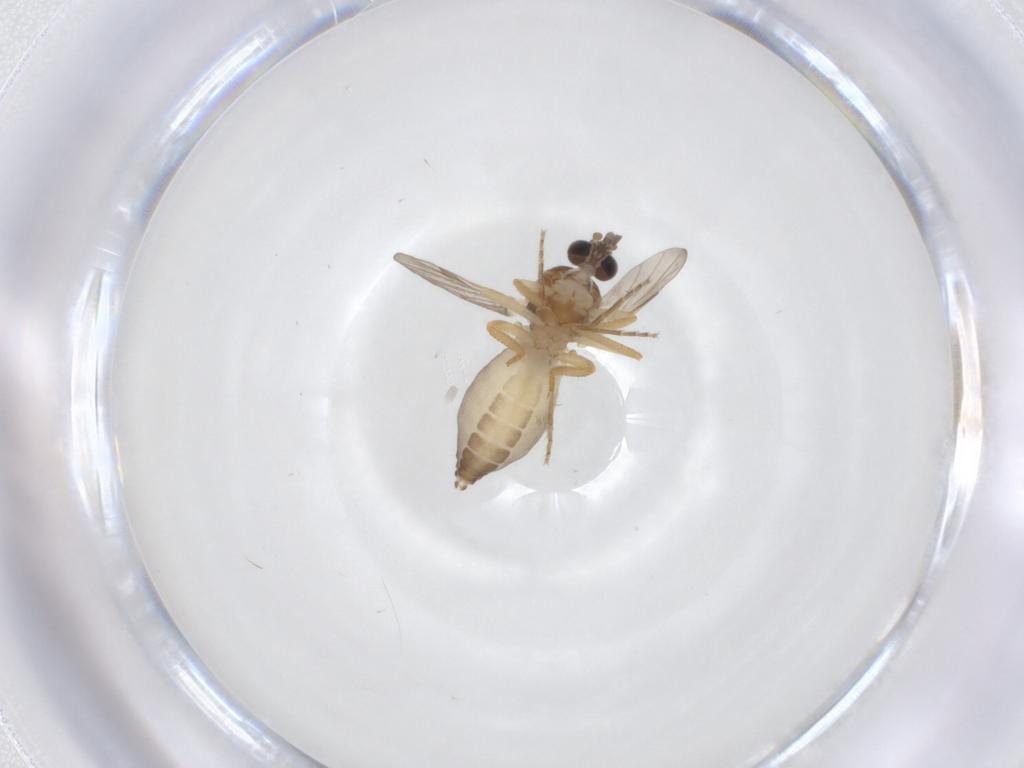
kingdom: Animalia
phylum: Arthropoda
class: Insecta
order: Diptera
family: Ceratopogonidae
